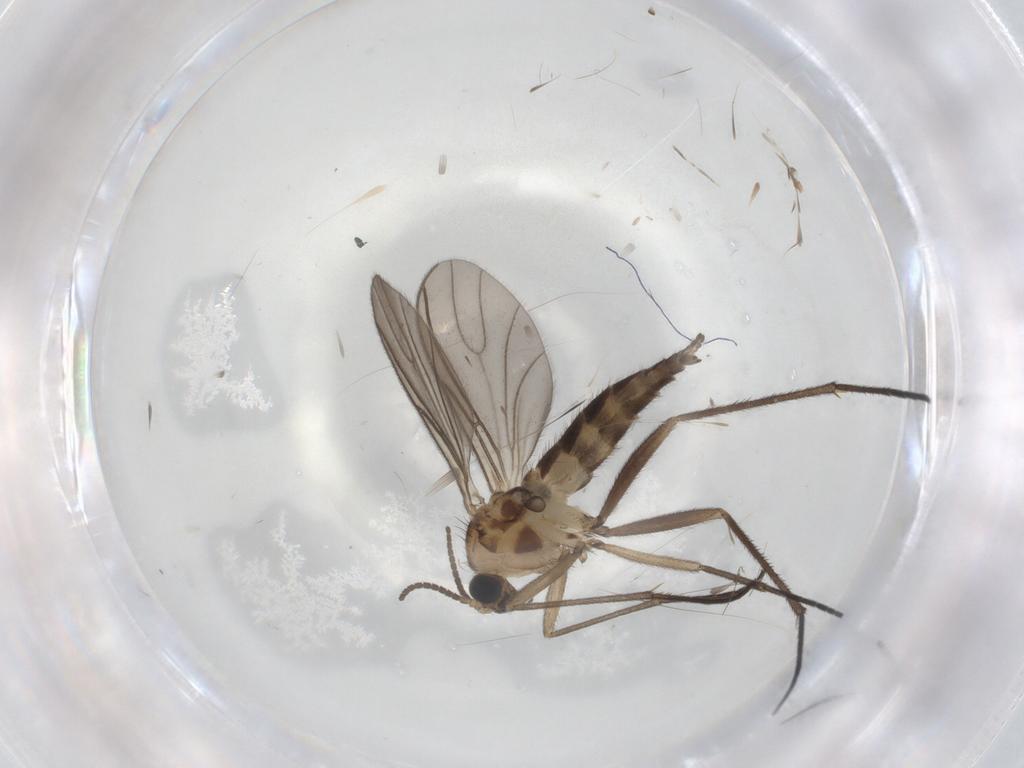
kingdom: Animalia
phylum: Arthropoda
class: Insecta
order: Diptera
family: Sciaridae
